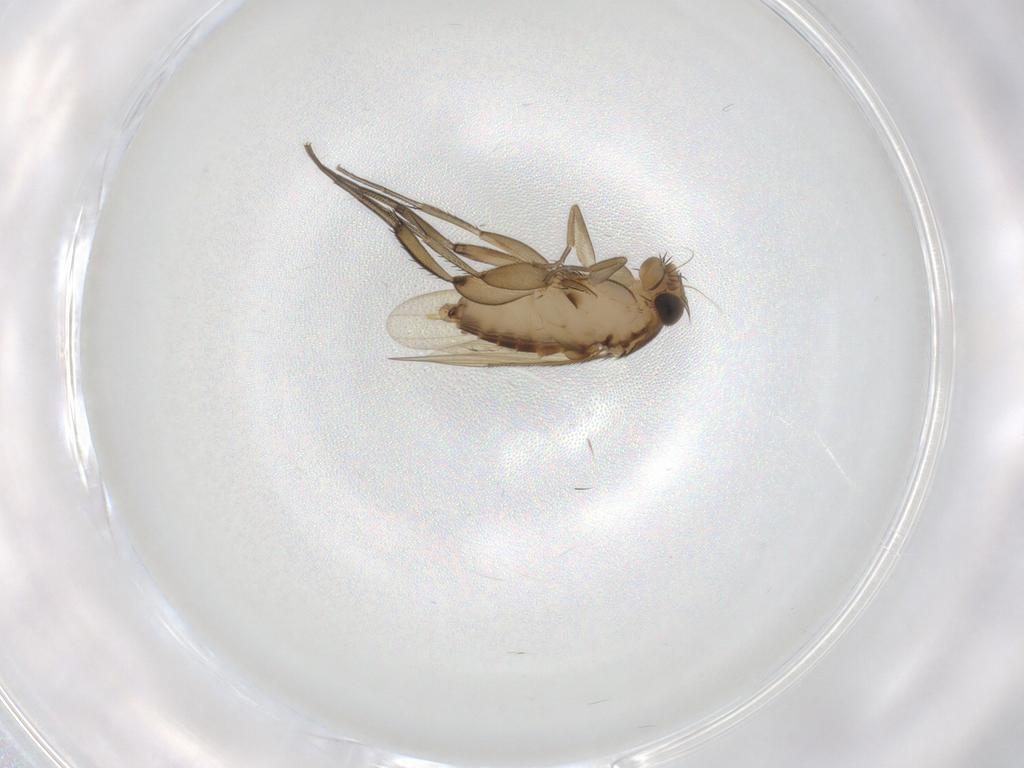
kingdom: Animalia
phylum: Arthropoda
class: Insecta
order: Diptera
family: Phoridae
